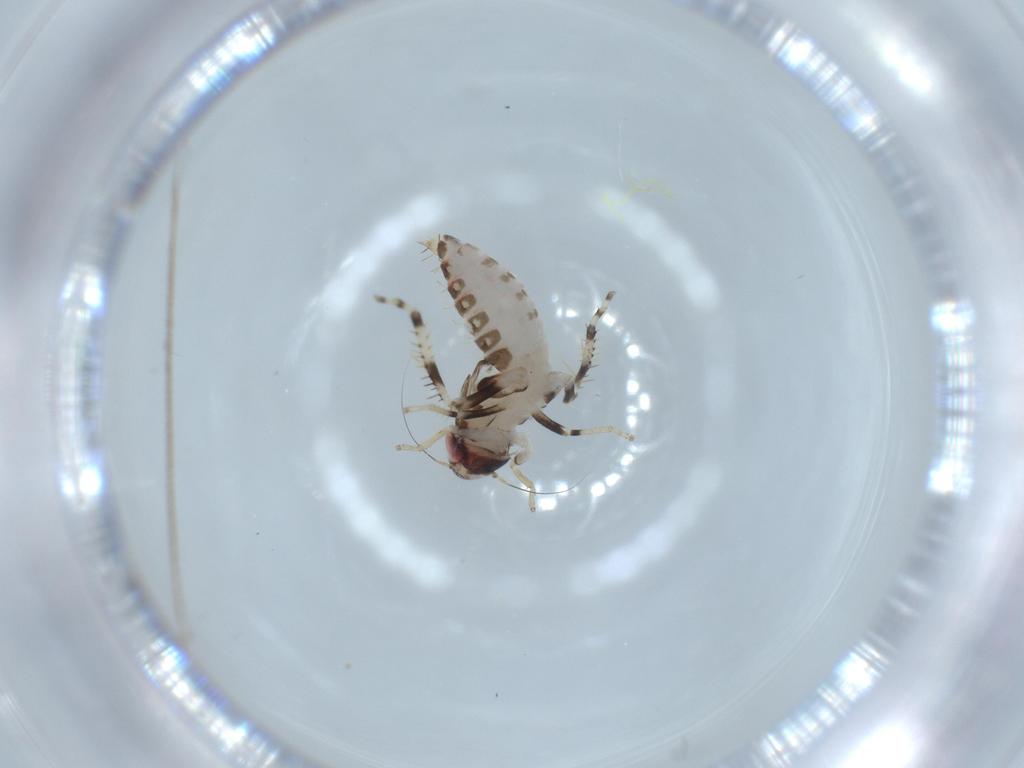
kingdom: Animalia
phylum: Arthropoda
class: Insecta
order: Hemiptera
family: Cicadellidae
